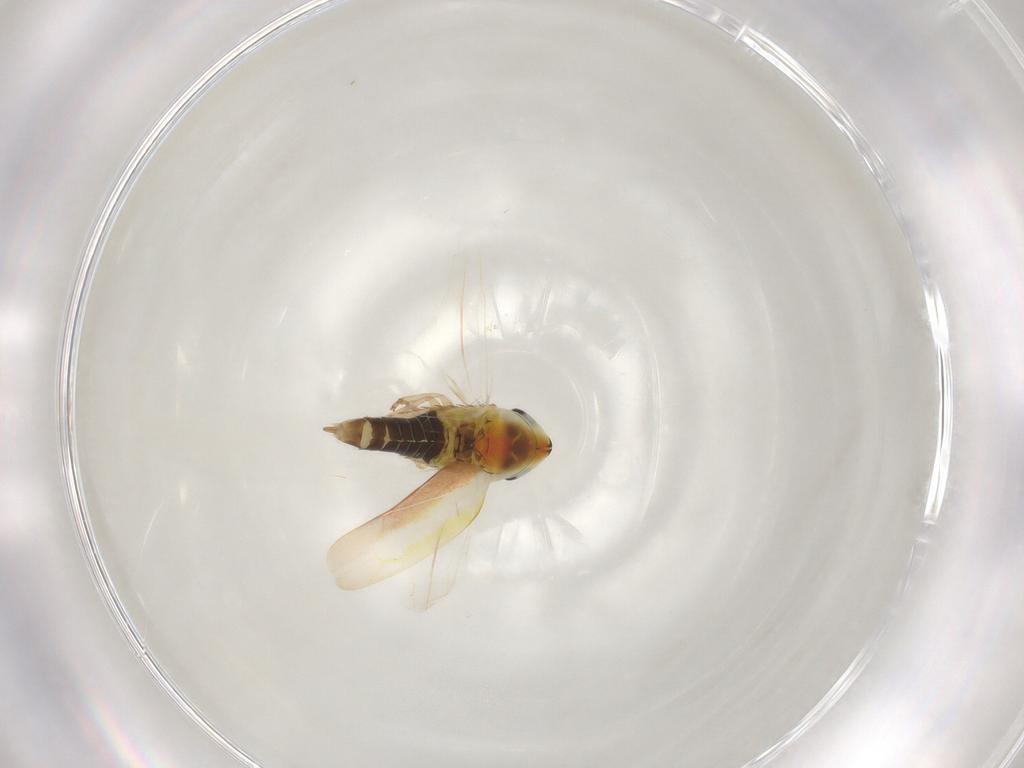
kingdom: Animalia
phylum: Arthropoda
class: Insecta
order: Hemiptera
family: Cicadellidae
